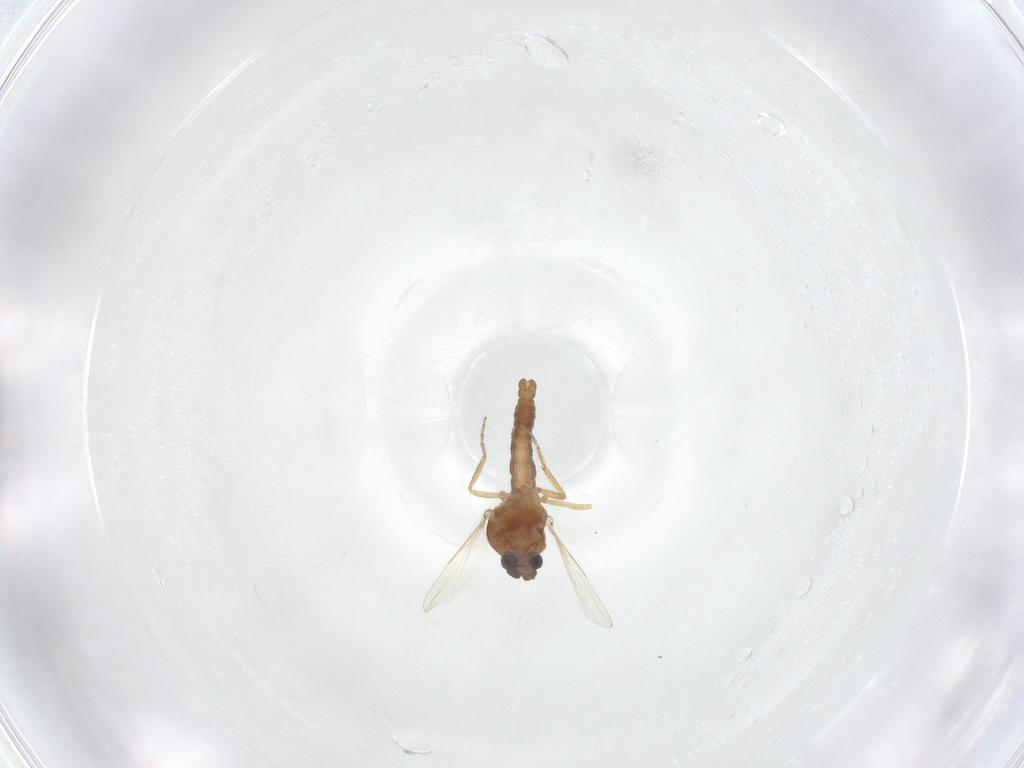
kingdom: Animalia
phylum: Arthropoda
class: Insecta
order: Diptera
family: Ceratopogonidae
